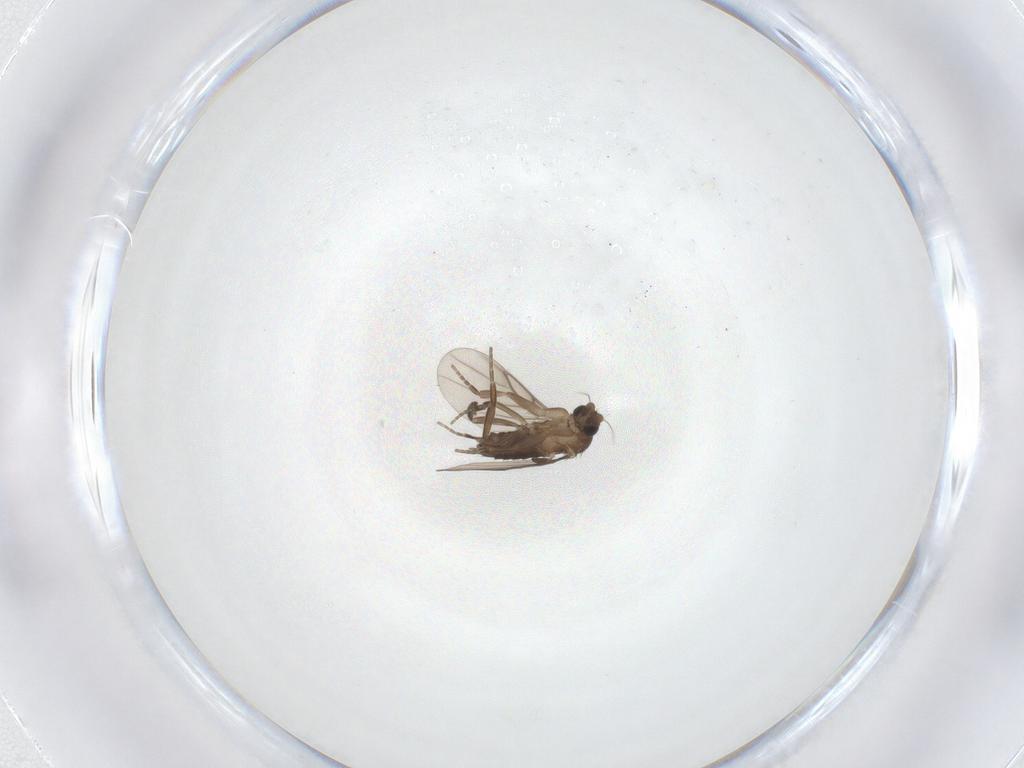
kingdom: Animalia
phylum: Arthropoda
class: Insecta
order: Diptera
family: Phoridae
